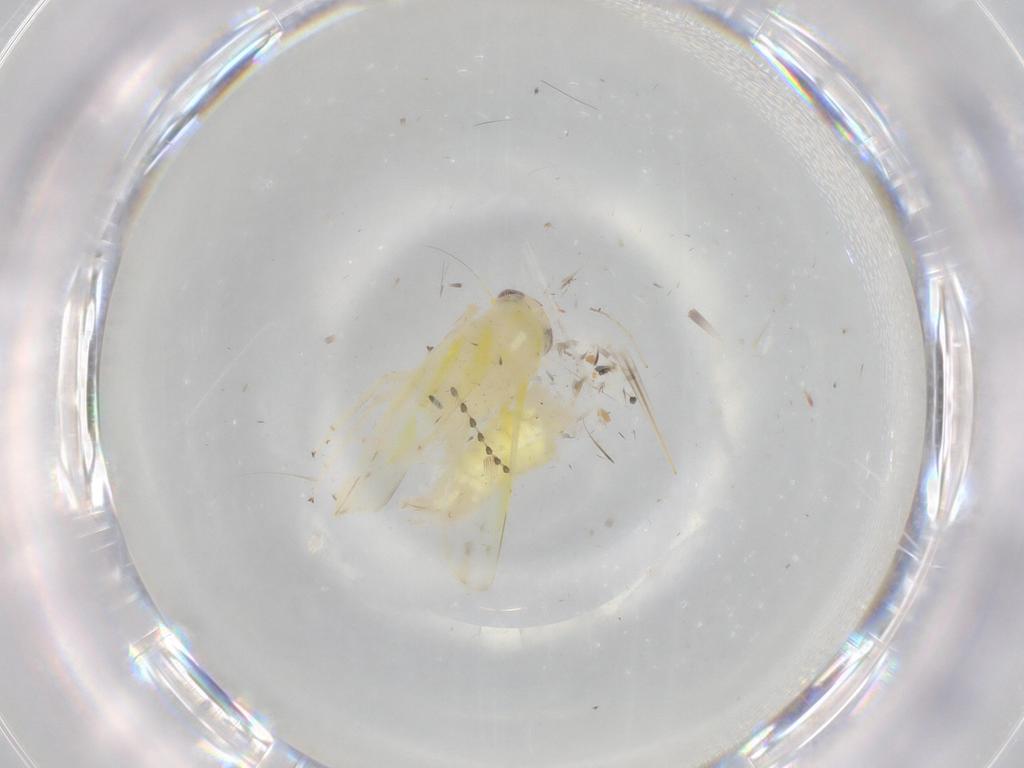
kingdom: Animalia
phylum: Arthropoda
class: Insecta
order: Hemiptera
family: Cicadellidae
